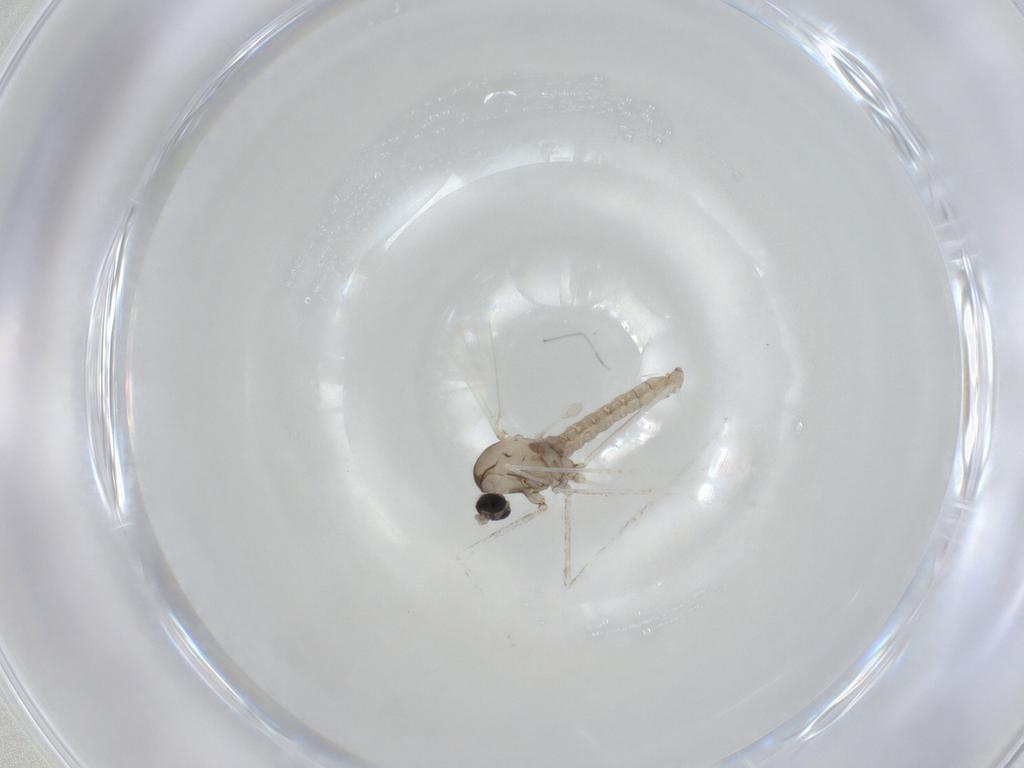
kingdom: Animalia
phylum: Arthropoda
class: Insecta
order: Diptera
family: Cecidomyiidae
